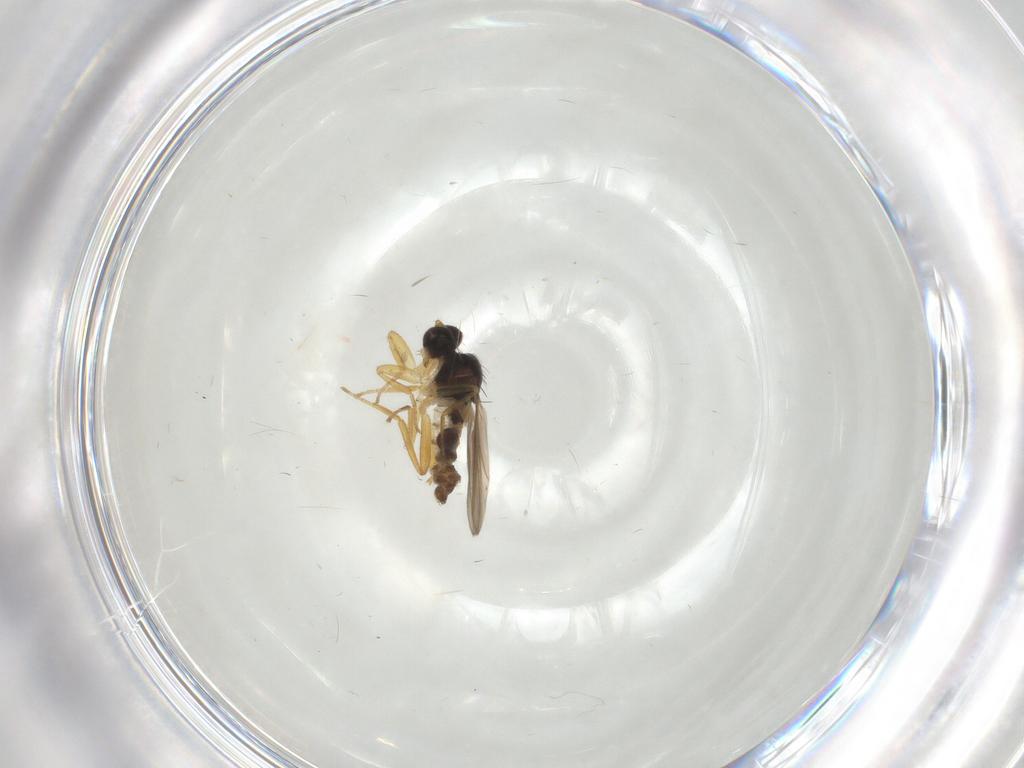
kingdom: Animalia
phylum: Arthropoda
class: Insecta
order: Diptera
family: Hybotidae
